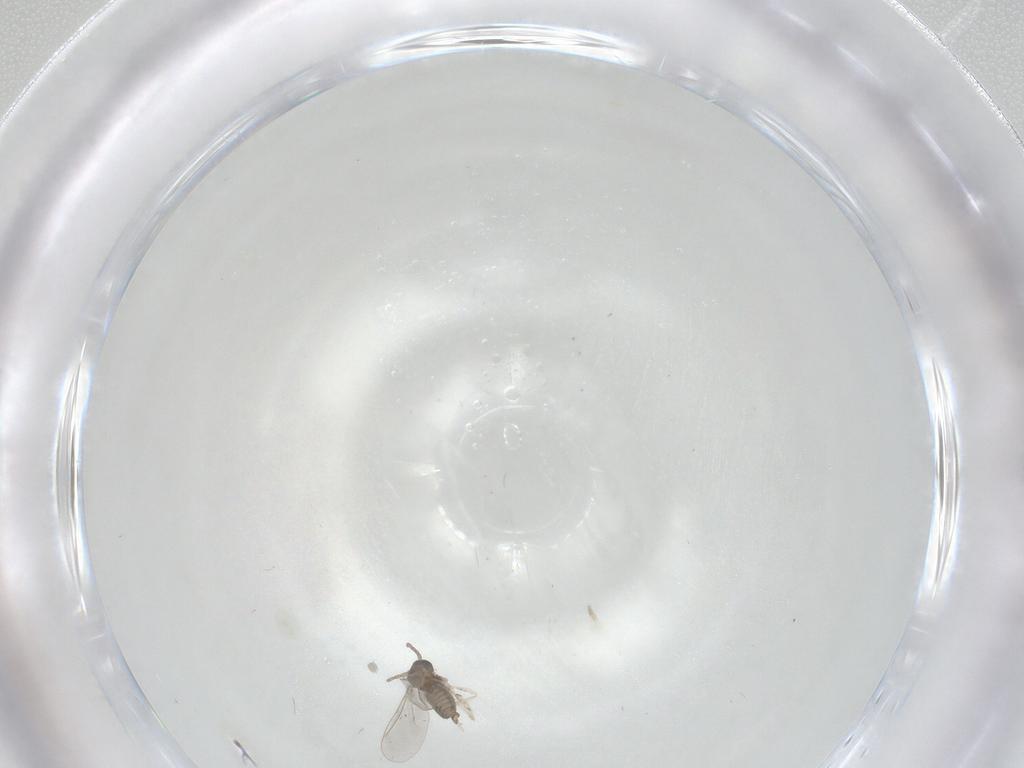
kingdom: Animalia
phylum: Arthropoda
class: Insecta
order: Diptera
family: Cecidomyiidae
